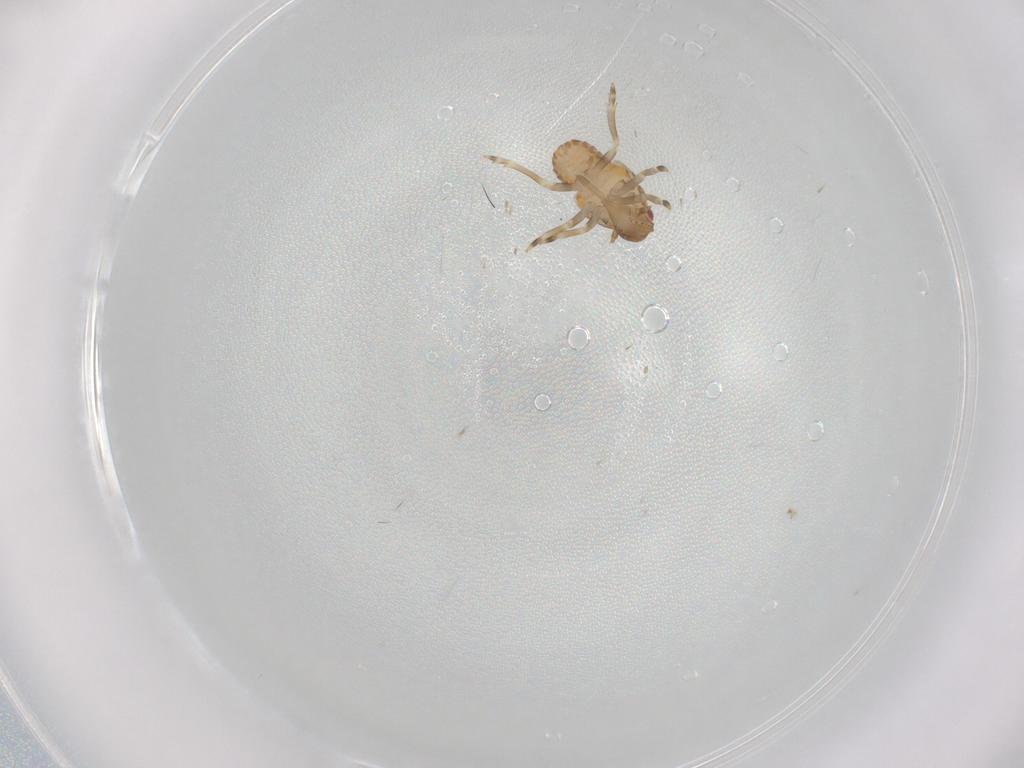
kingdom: Animalia
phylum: Arthropoda
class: Insecta
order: Hemiptera
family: Flatidae
